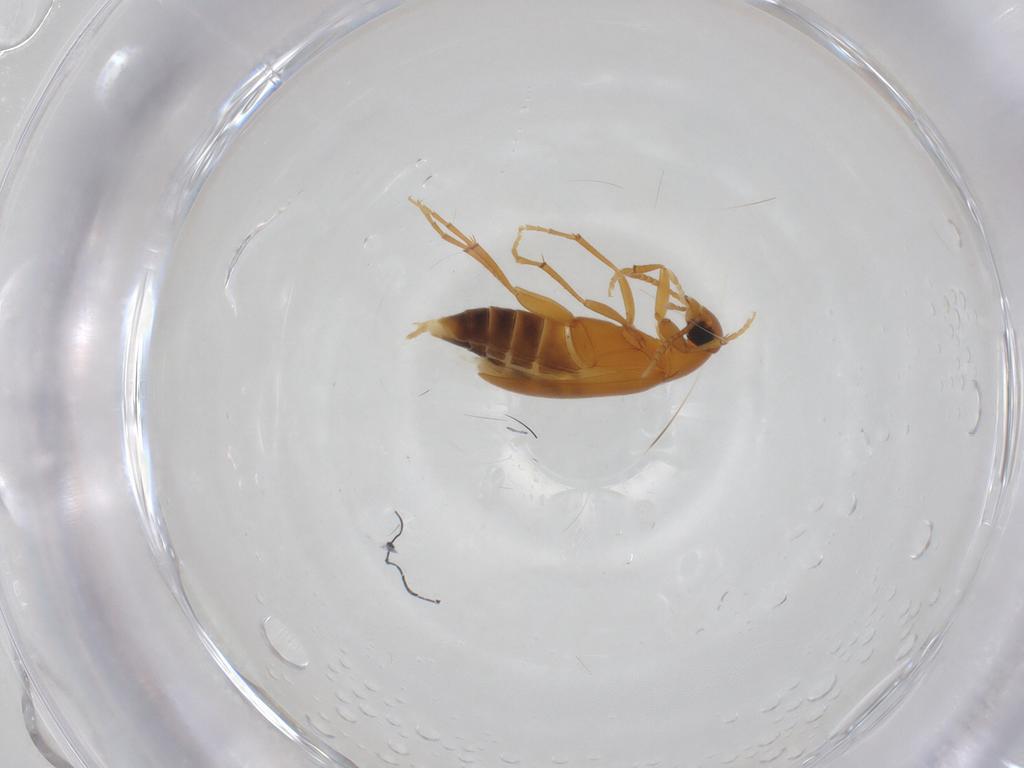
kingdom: Animalia
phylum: Arthropoda
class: Insecta
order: Coleoptera
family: Scraptiidae
